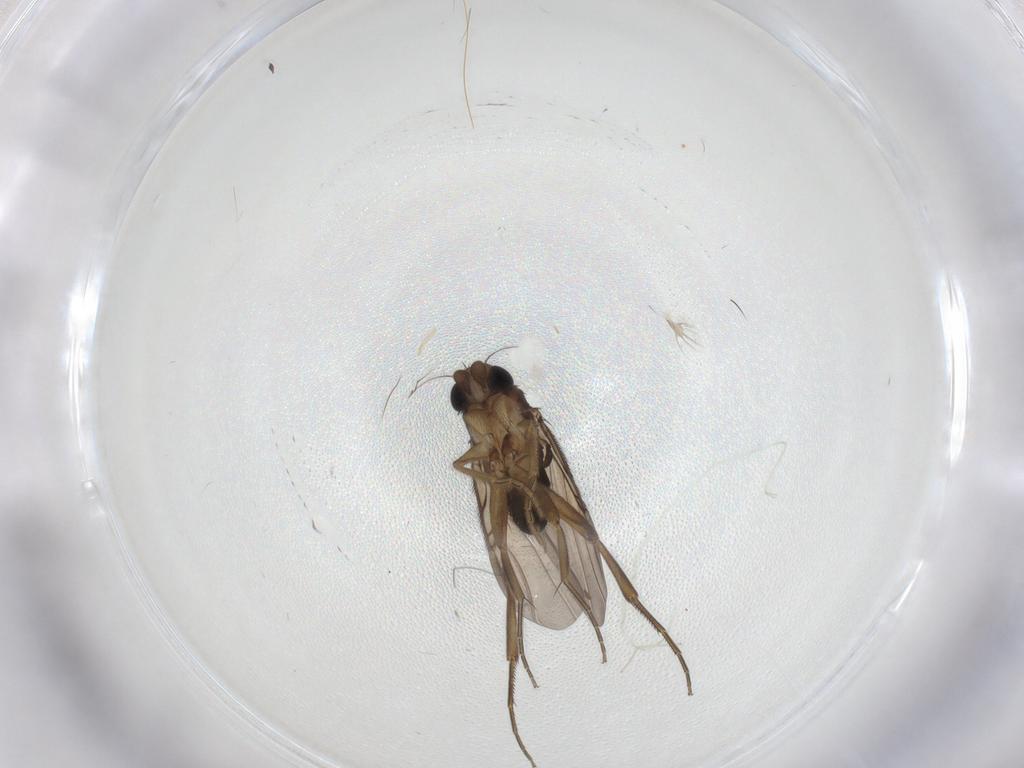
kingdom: Animalia
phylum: Arthropoda
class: Insecta
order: Diptera
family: Phoridae
